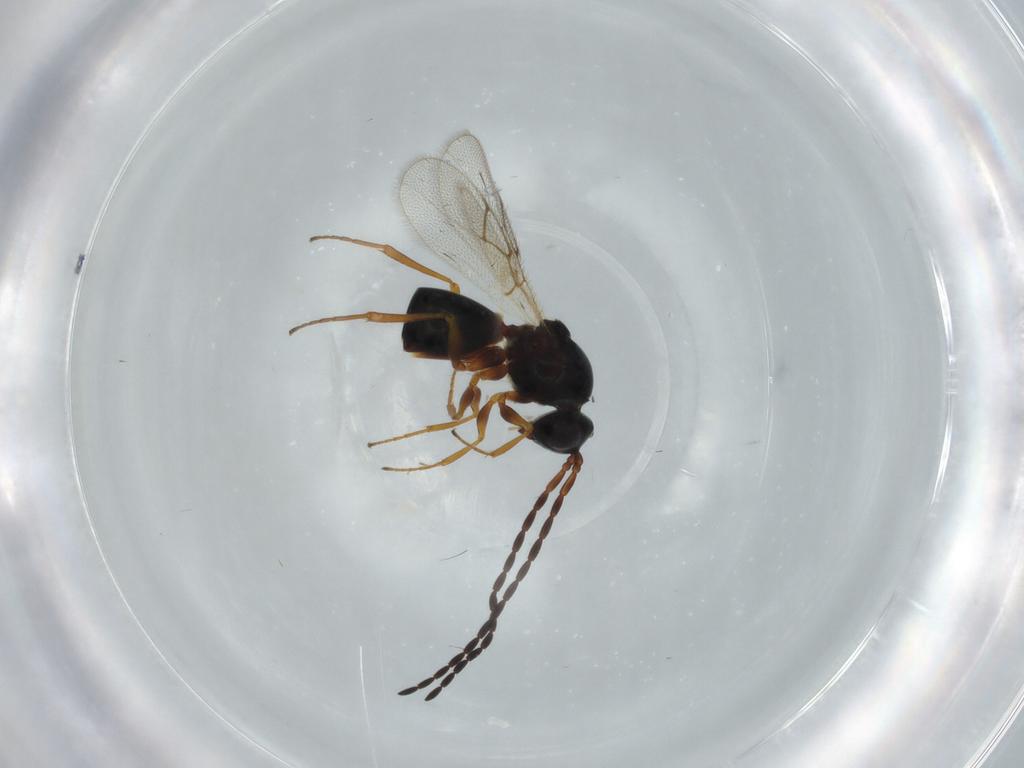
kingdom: Animalia
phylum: Arthropoda
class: Insecta
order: Hymenoptera
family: Figitidae
